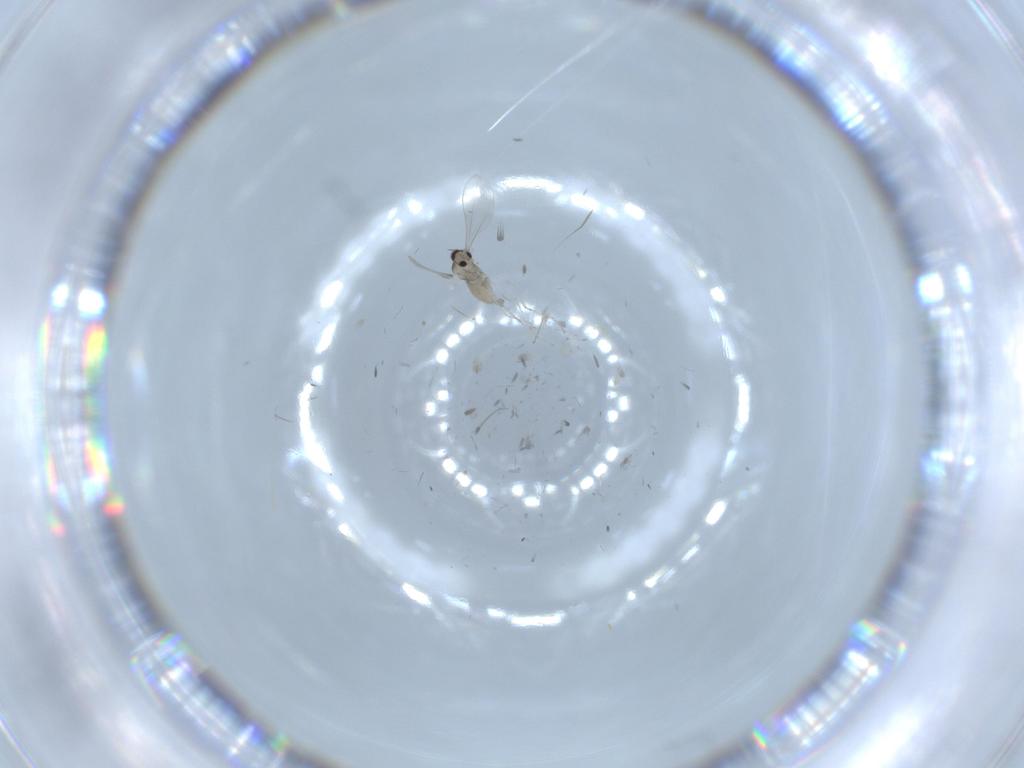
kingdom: Animalia
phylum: Arthropoda
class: Insecta
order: Diptera
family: Cecidomyiidae
